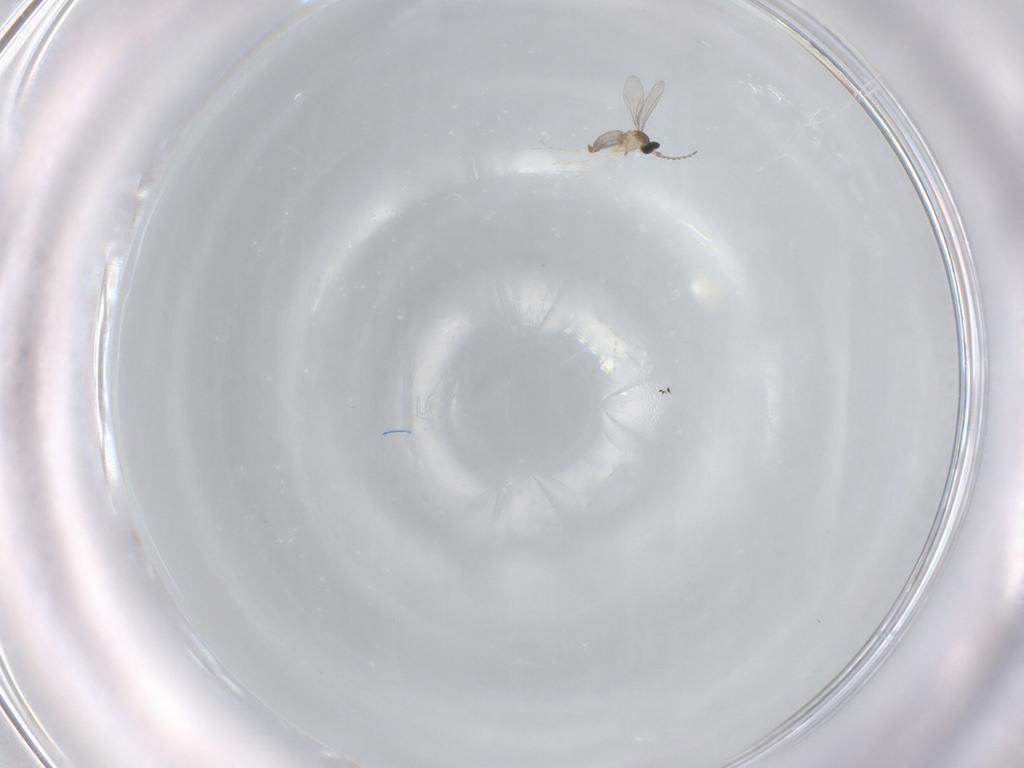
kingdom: Animalia
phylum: Arthropoda
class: Insecta
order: Diptera
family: Cecidomyiidae
